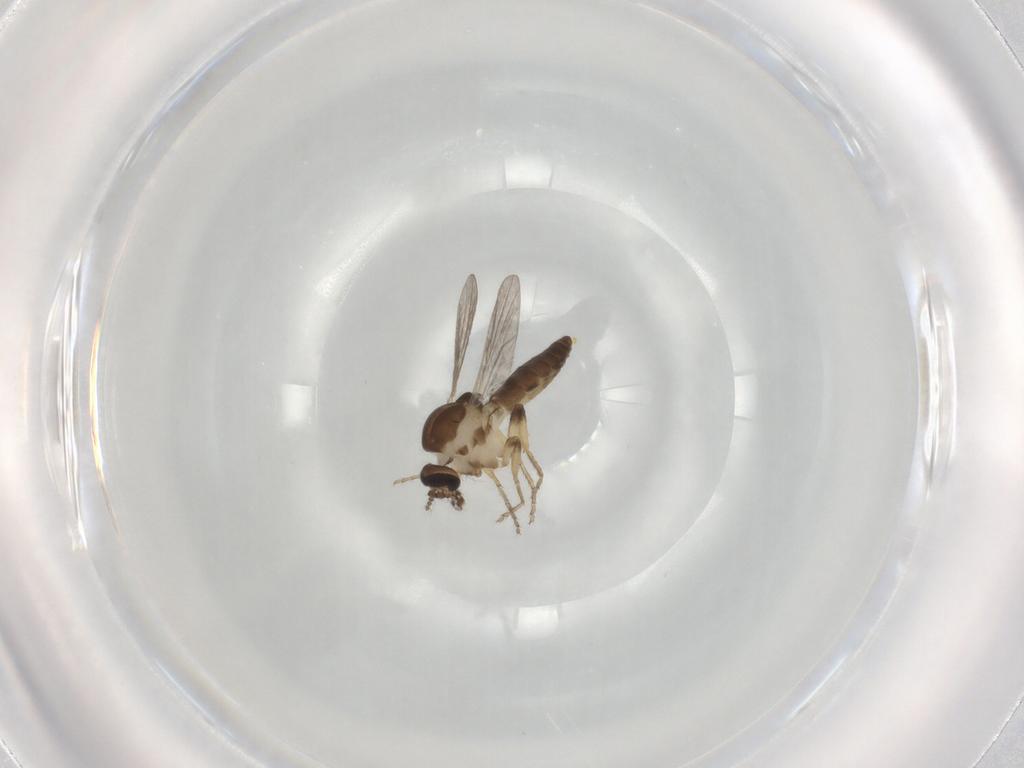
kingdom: Animalia
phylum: Arthropoda
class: Insecta
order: Diptera
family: Ceratopogonidae
